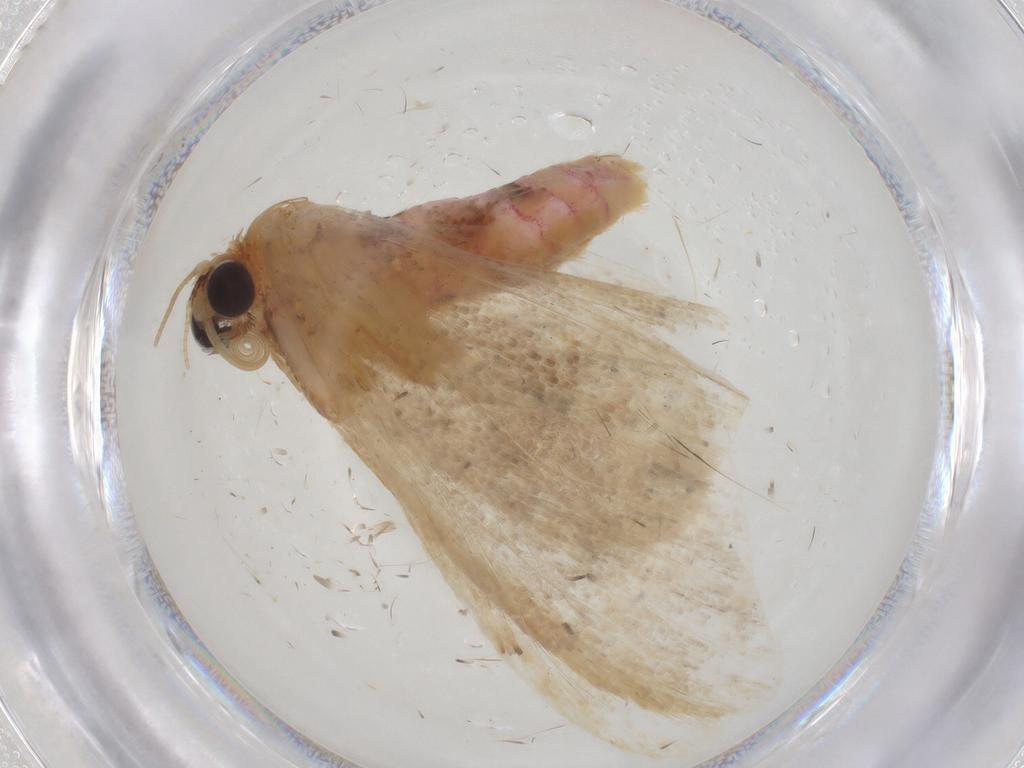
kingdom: Animalia
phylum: Arthropoda
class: Insecta
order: Lepidoptera
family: Geometridae
